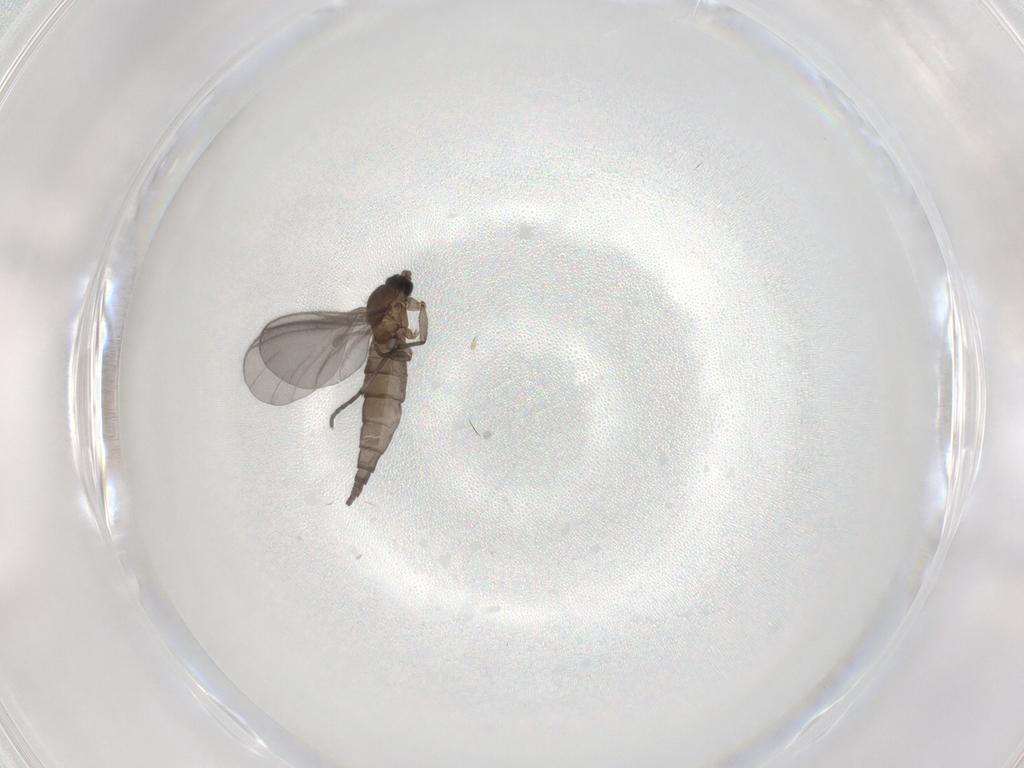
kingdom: Animalia
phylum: Arthropoda
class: Insecta
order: Diptera
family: Sciaridae
